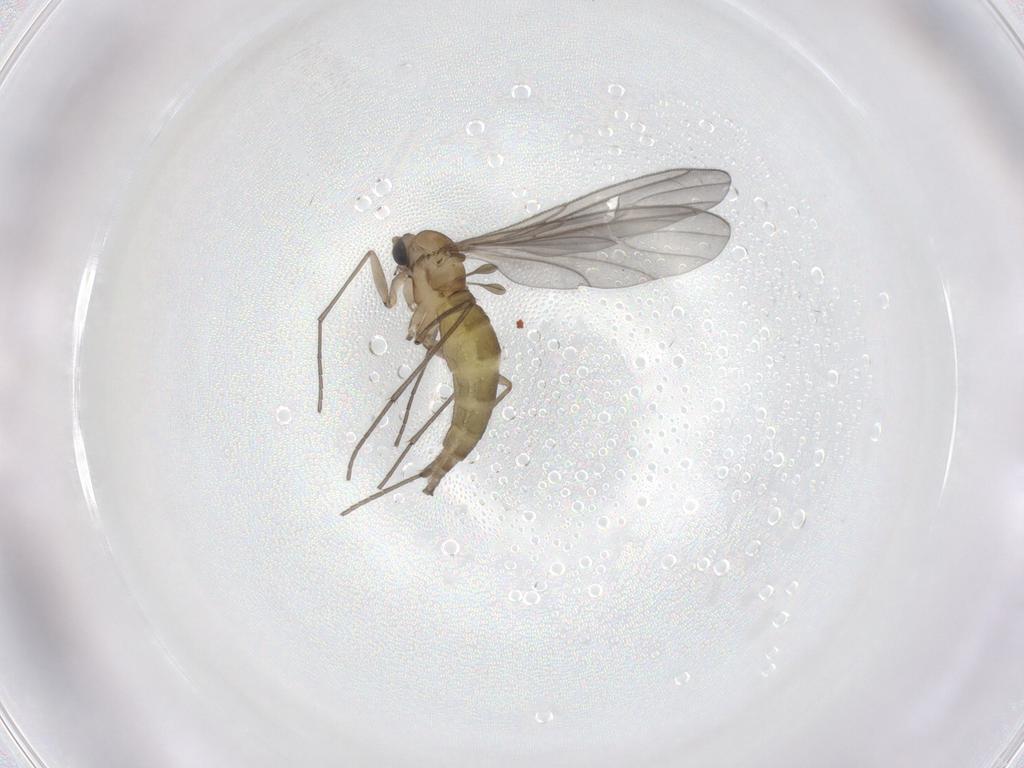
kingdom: Animalia
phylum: Arthropoda
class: Insecta
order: Diptera
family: Sciaridae
